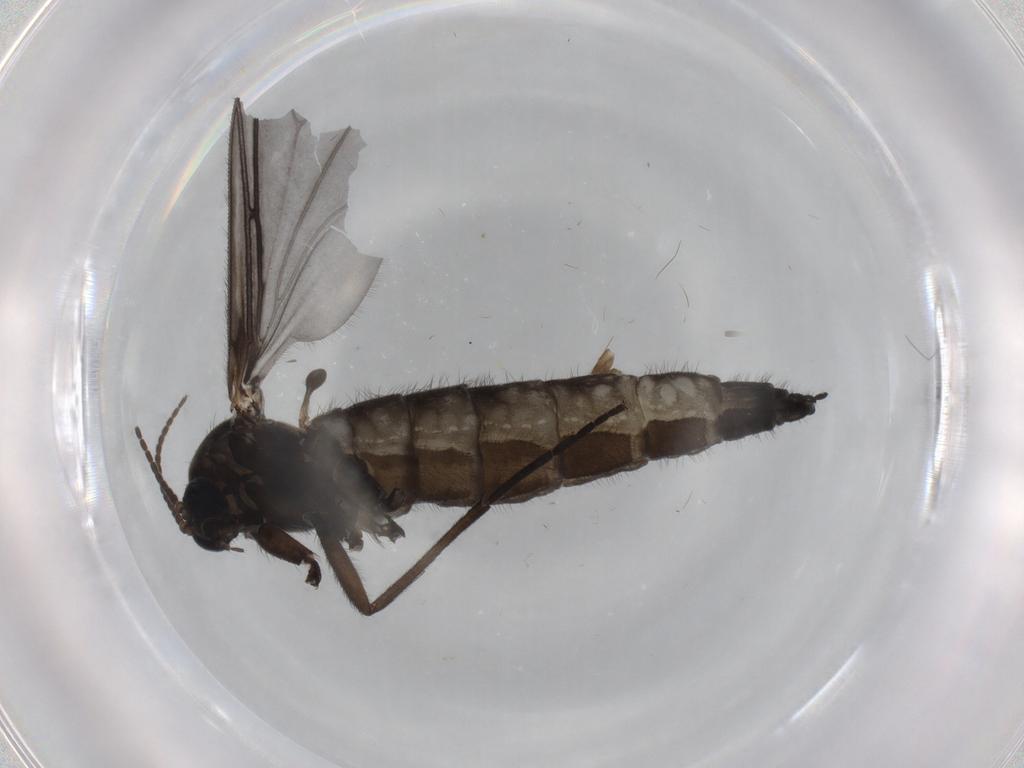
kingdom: Animalia
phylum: Arthropoda
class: Insecta
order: Diptera
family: Sciaridae
